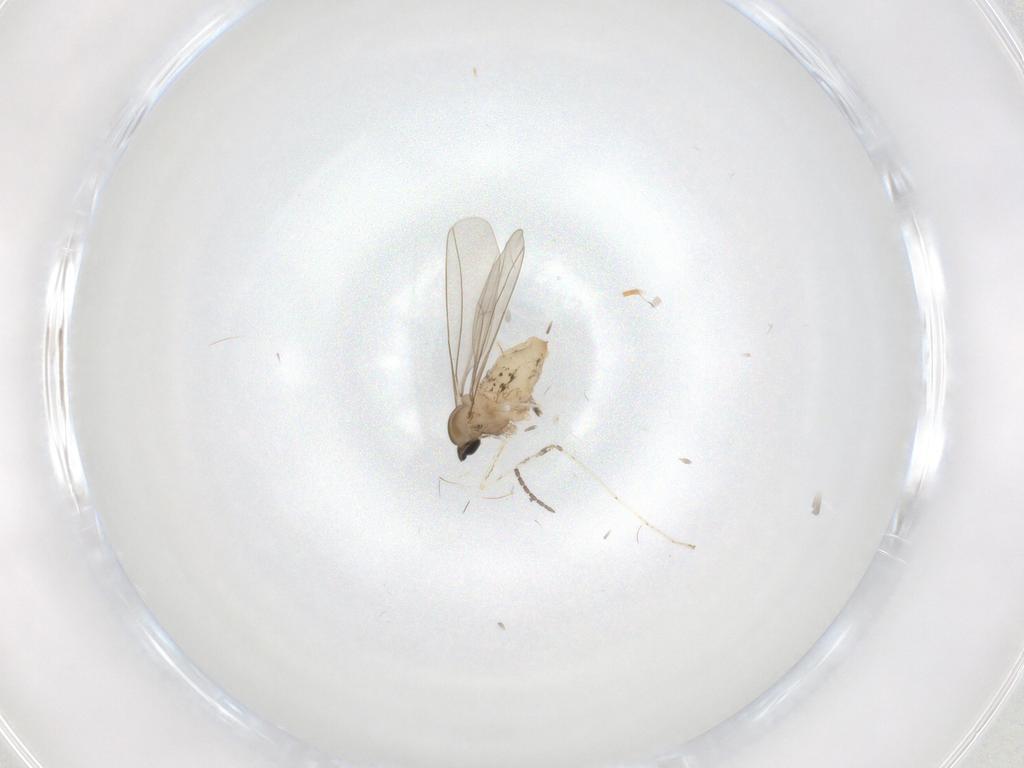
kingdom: Animalia
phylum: Arthropoda
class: Insecta
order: Diptera
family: Cecidomyiidae
